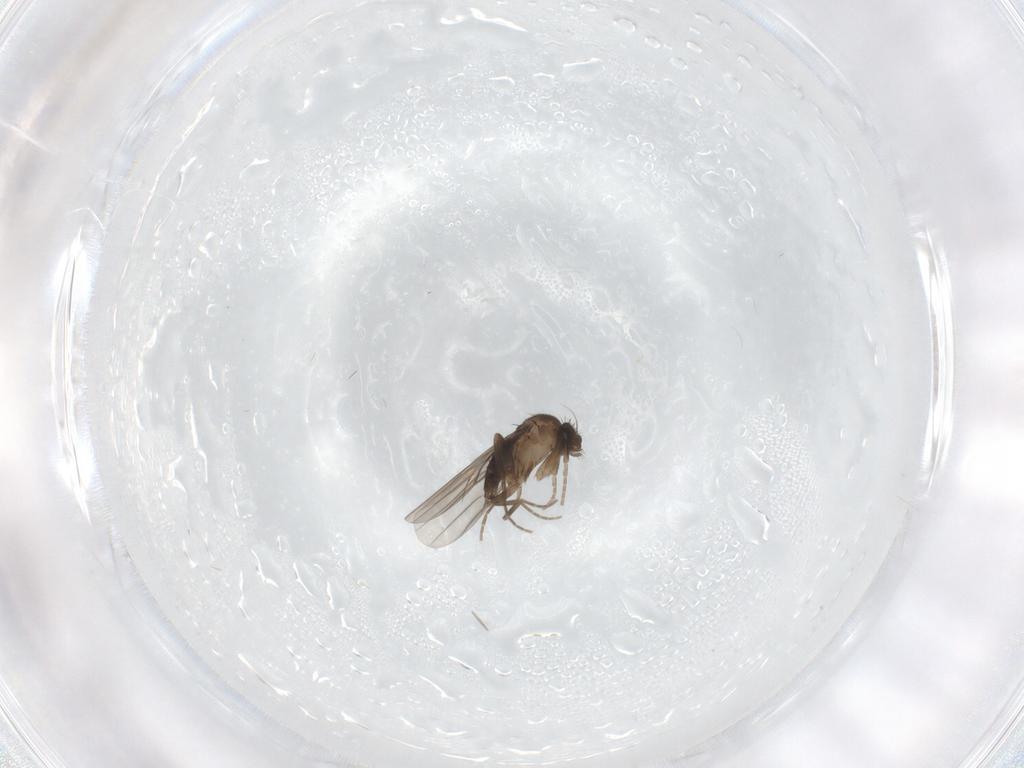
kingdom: Animalia
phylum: Arthropoda
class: Insecta
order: Diptera
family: Phoridae
